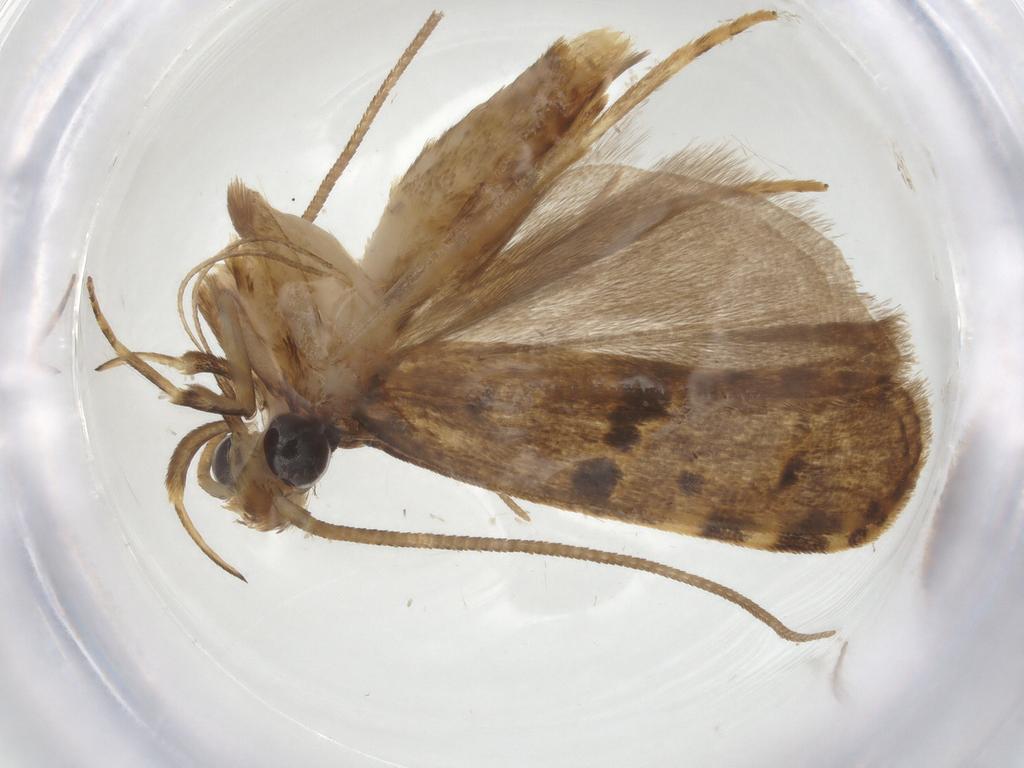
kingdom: Animalia
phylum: Arthropoda
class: Insecta
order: Lepidoptera
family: Autostichidae
